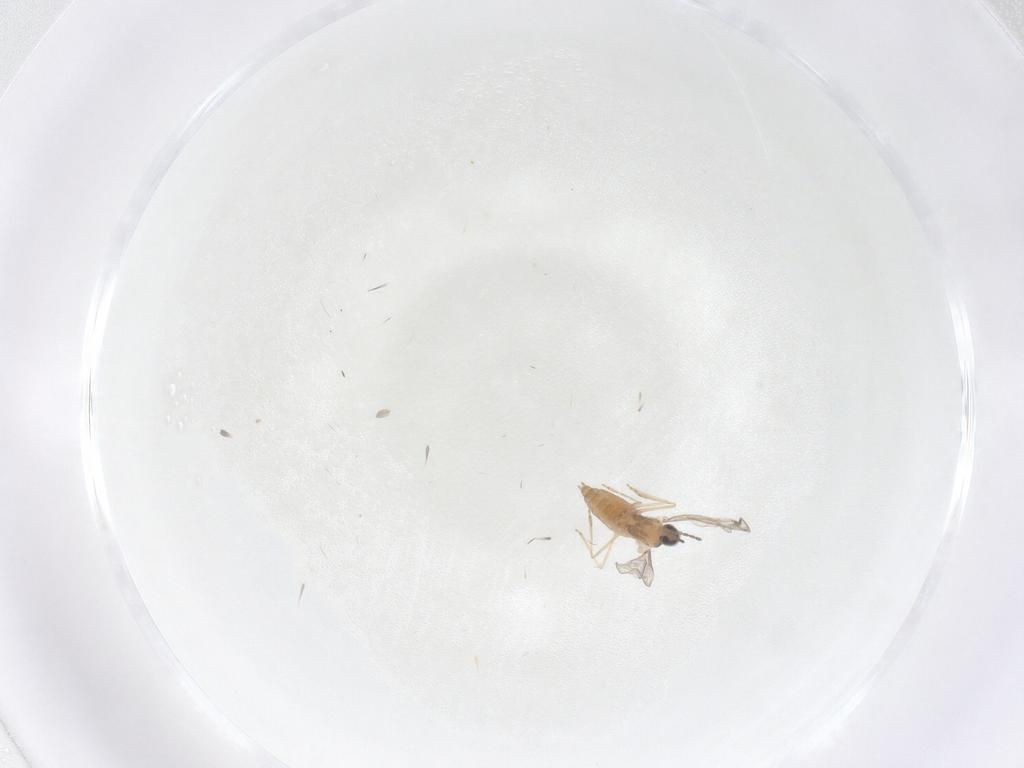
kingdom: Animalia
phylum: Arthropoda
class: Insecta
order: Diptera
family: Cecidomyiidae
